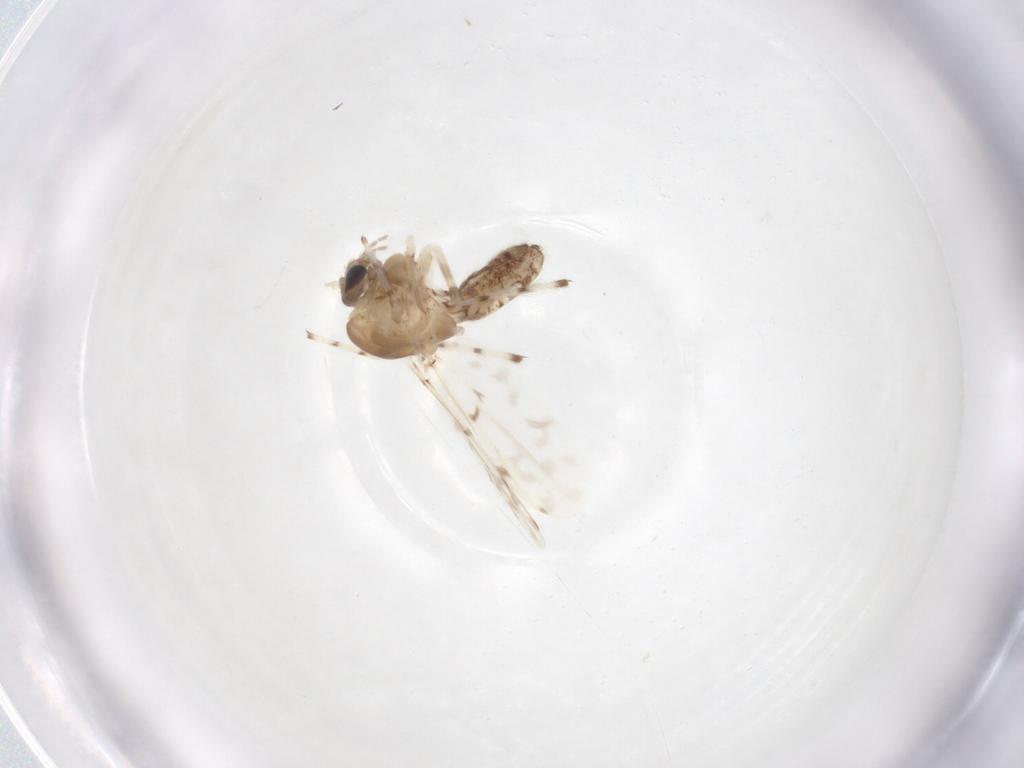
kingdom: Animalia
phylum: Arthropoda
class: Insecta
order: Diptera
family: Chironomidae
